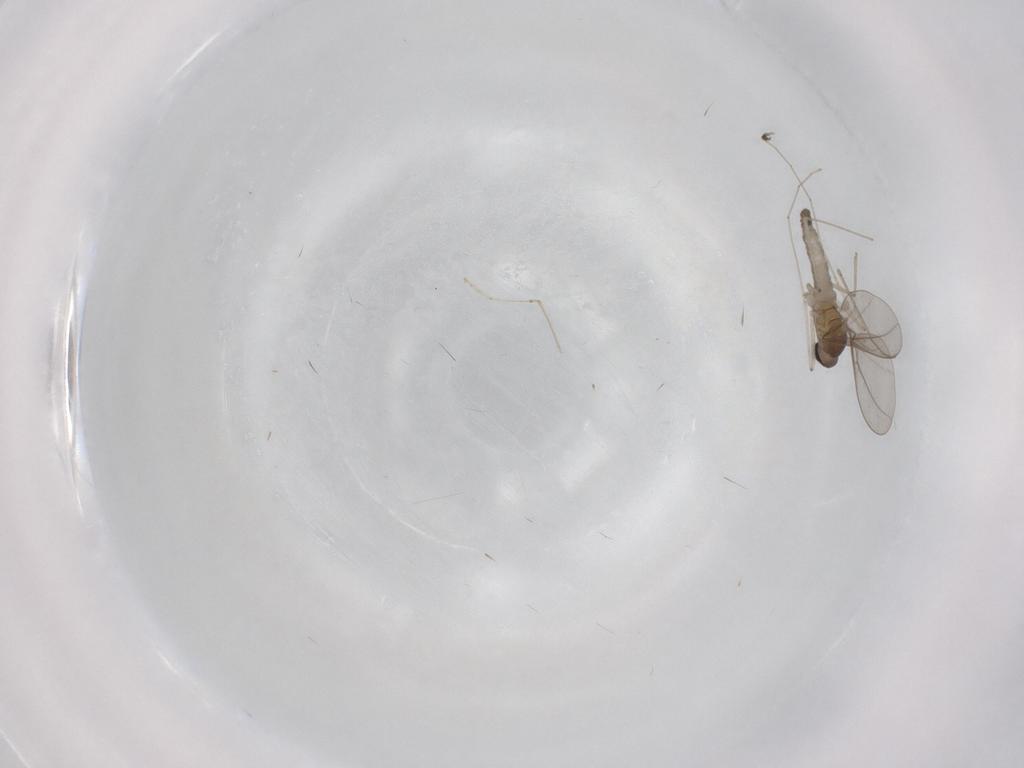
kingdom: Animalia
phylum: Arthropoda
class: Insecta
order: Diptera
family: Sciaridae
